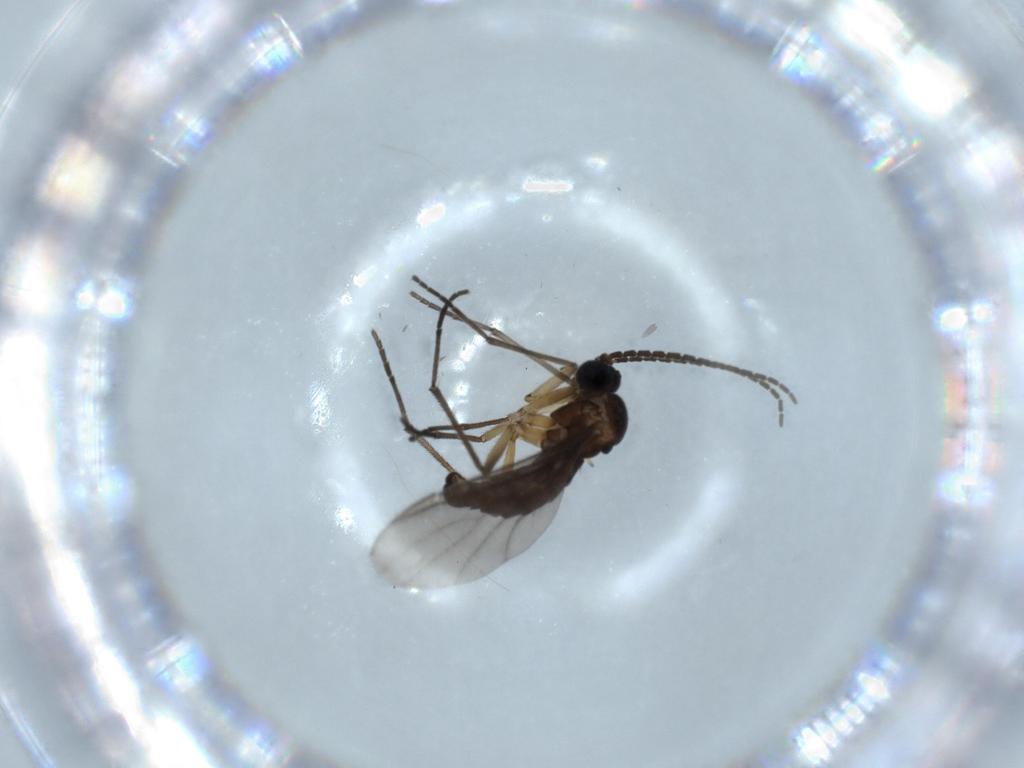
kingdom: Animalia
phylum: Arthropoda
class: Insecta
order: Diptera
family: Sciaridae
